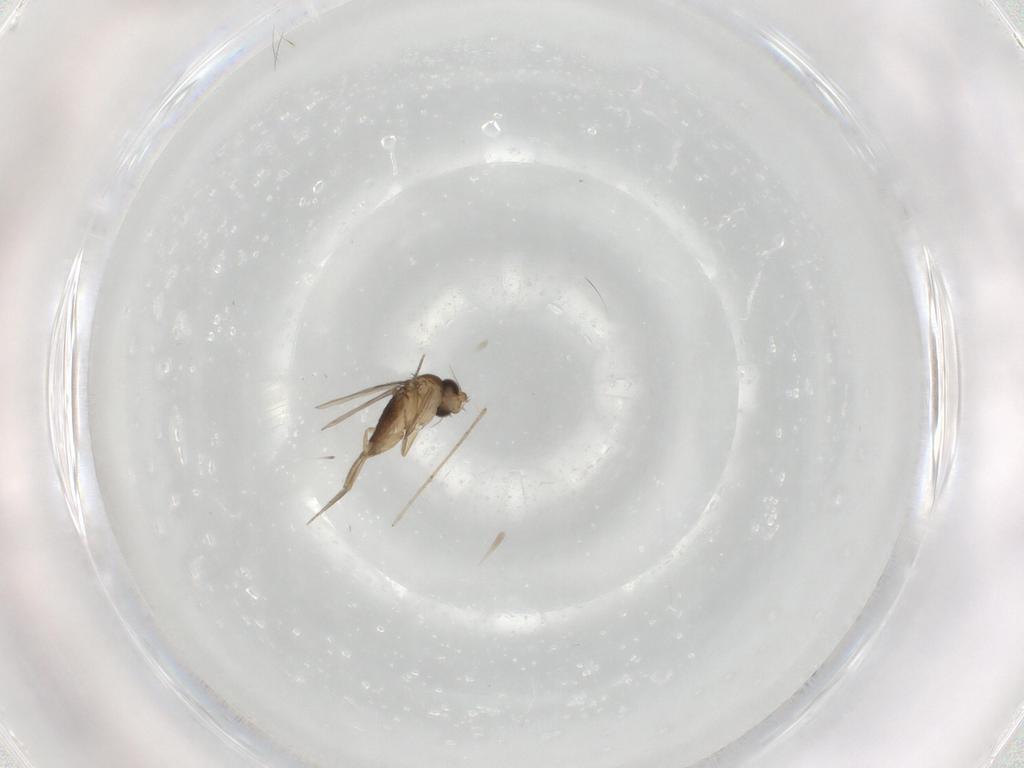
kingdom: Animalia
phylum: Arthropoda
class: Insecta
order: Diptera
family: Phoridae
